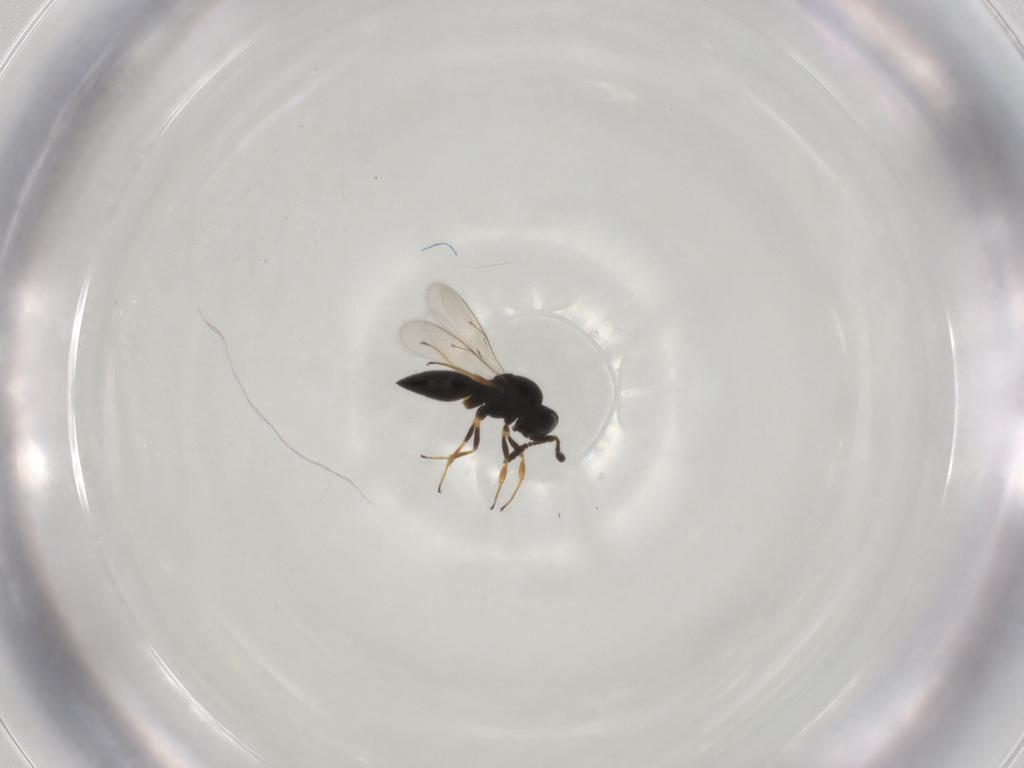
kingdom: Animalia
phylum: Arthropoda
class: Insecta
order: Hymenoptera
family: Scelionidae
